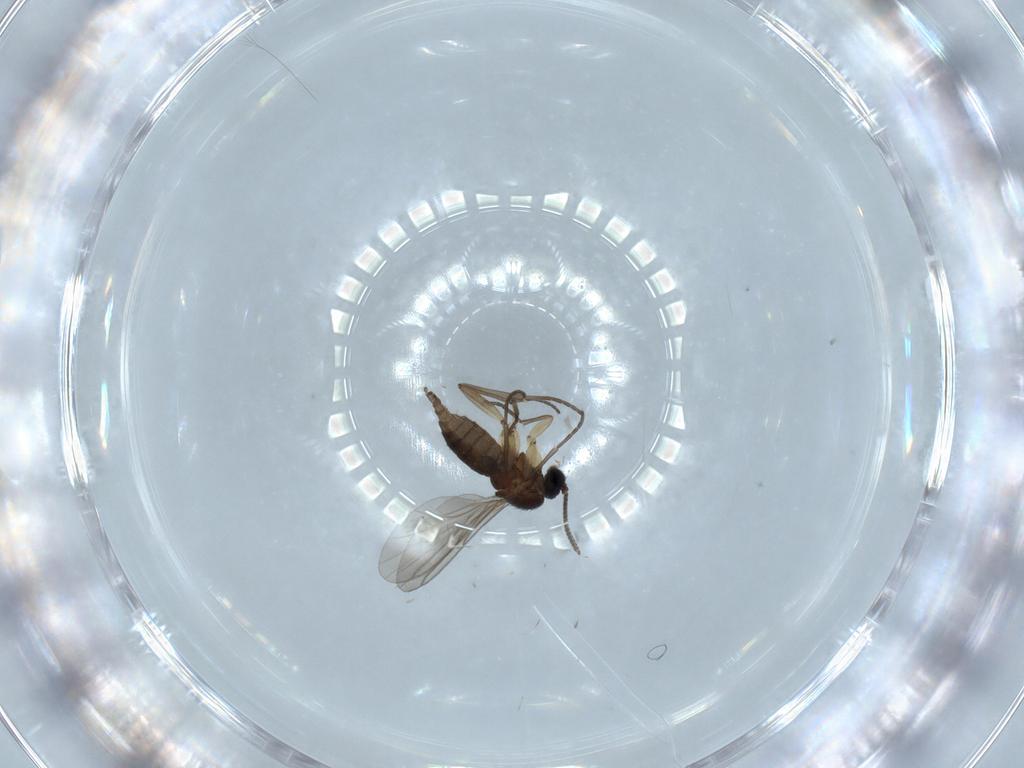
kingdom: Animalia
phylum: Arthropoda
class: Insecta
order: Diptera
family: Sciaridae
